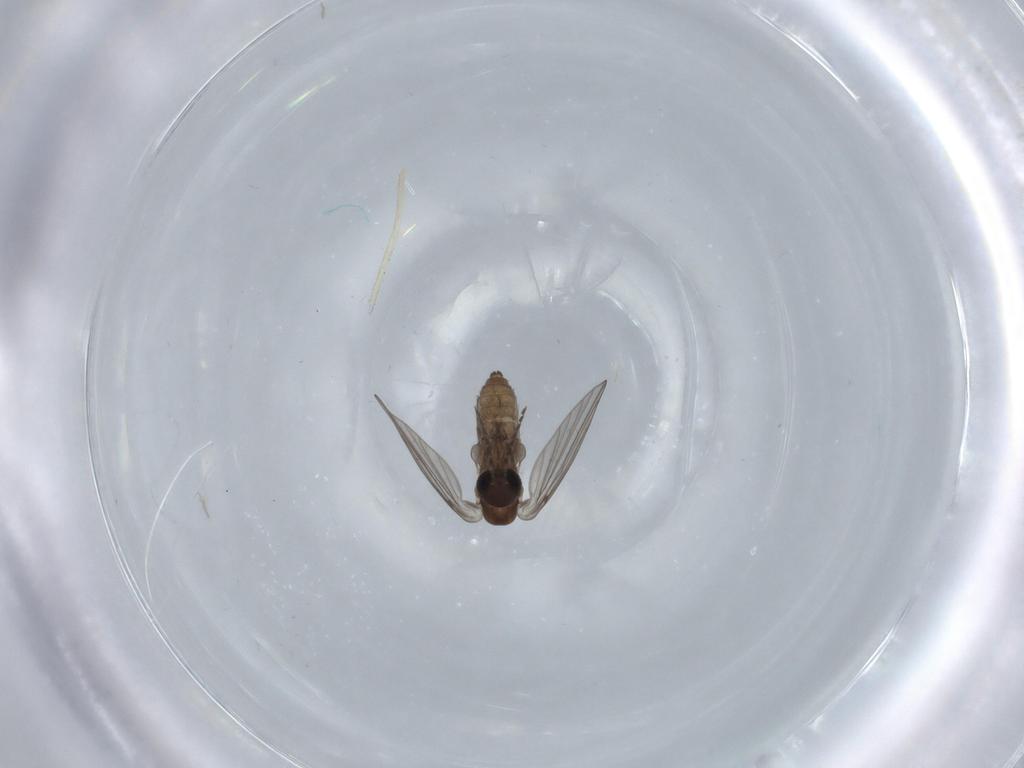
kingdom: Animalia
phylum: Arthropoda
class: Insecta
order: Diptera
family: Psychodidae
